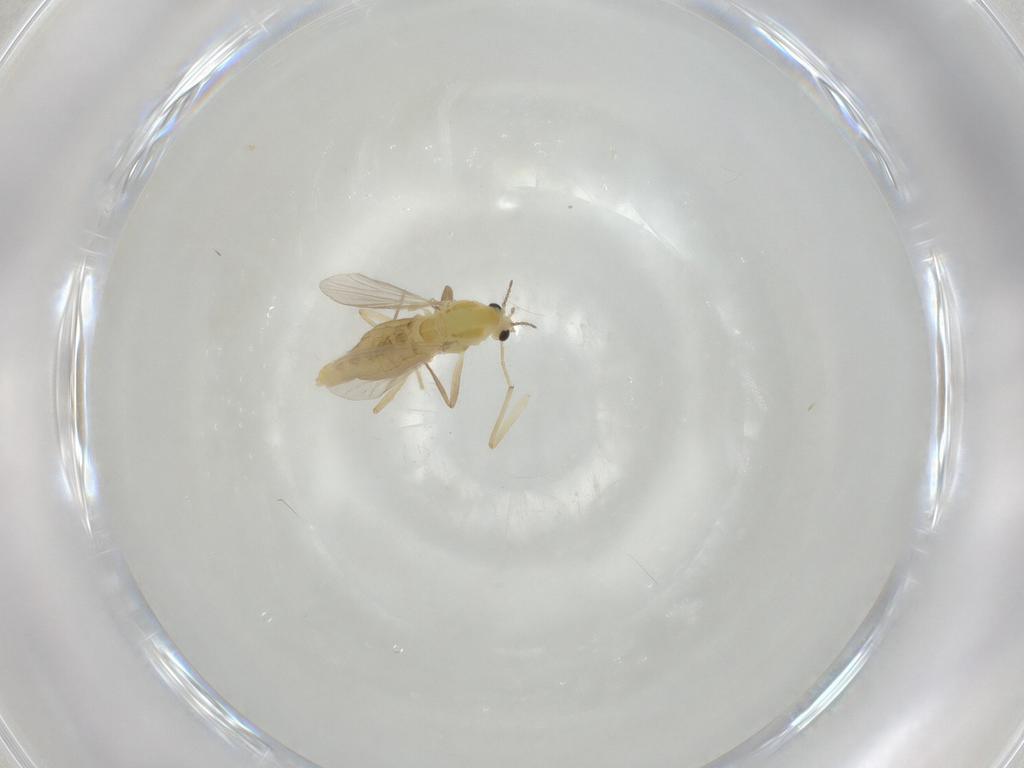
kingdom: Animalia
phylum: Arthropoda
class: Insecta
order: Diptera
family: Chironomidae
